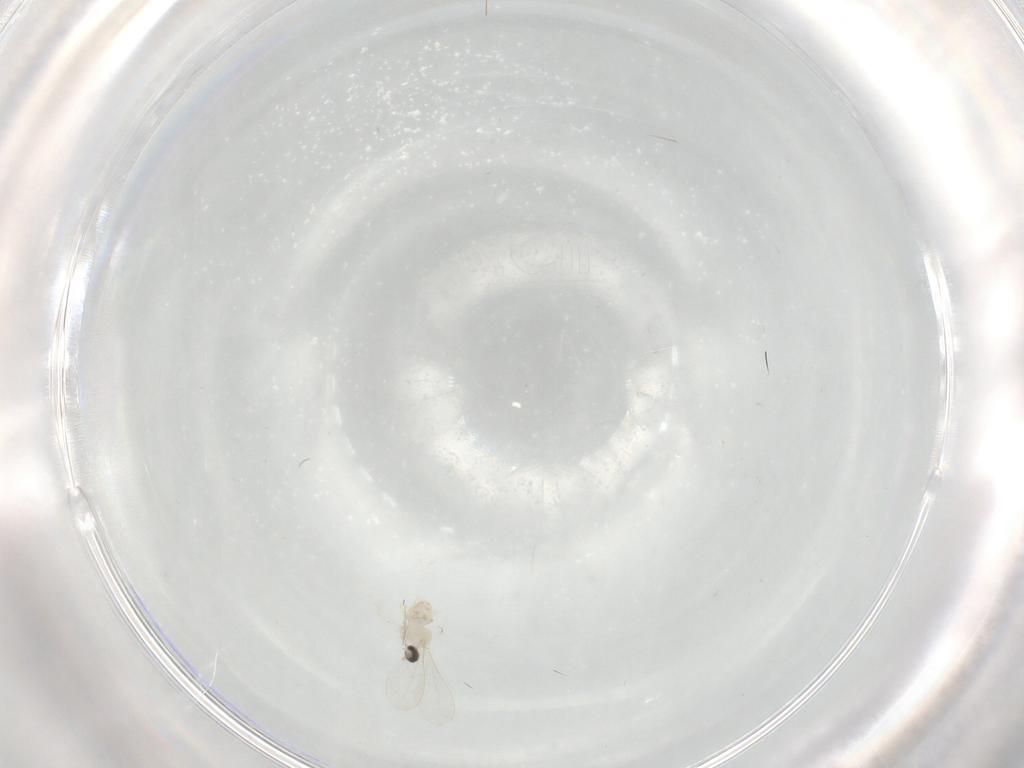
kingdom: Animalia
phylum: Arthropoda
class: Insecta
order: Diptera
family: Cecidomyiidae
